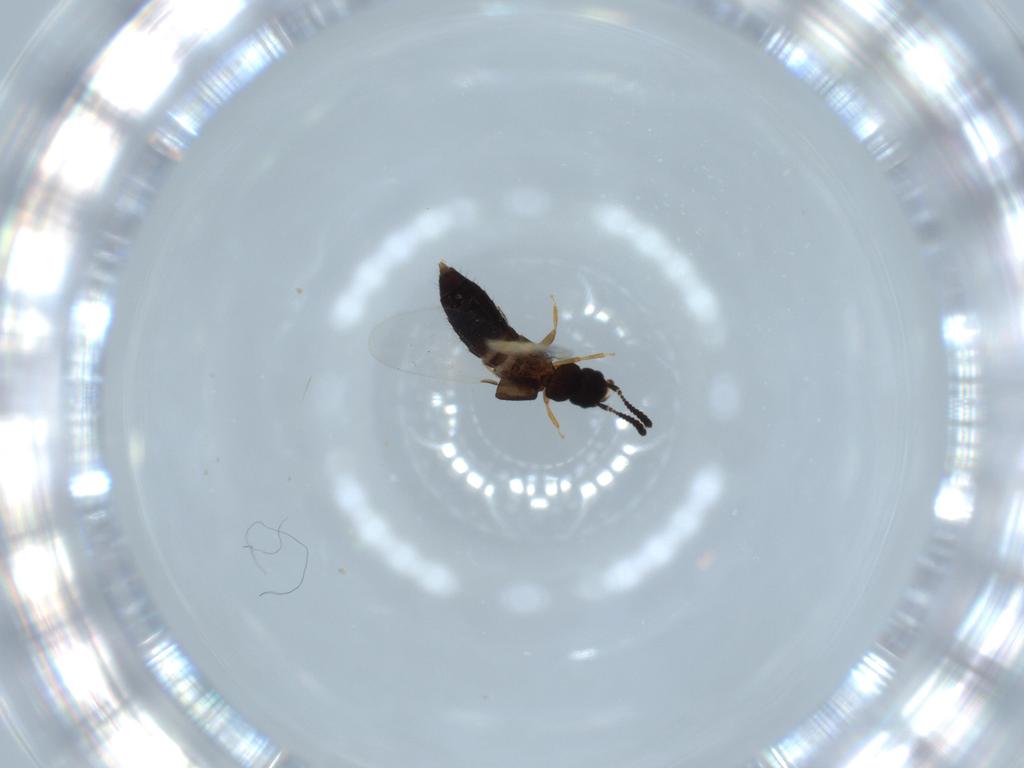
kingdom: Animalia
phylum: Arthropoda
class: Insecta
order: Coleoptera
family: Staphylinidae
